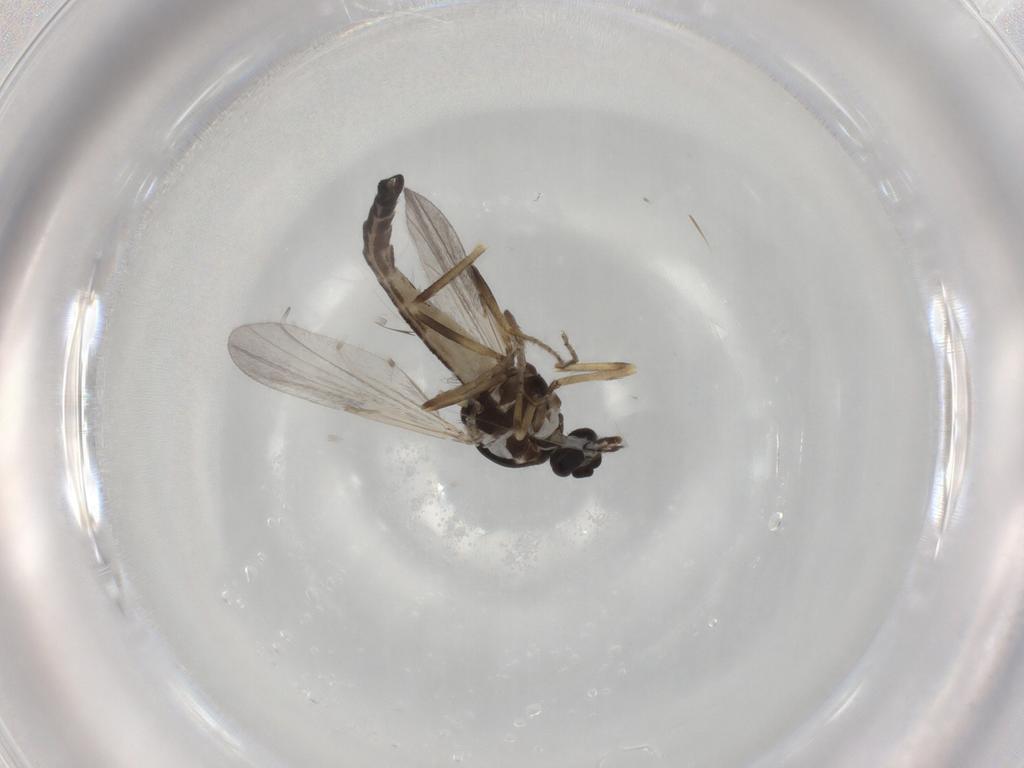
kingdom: Animalia
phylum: Arthropoda
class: Insecta
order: Diptera
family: Ceratopogonidae
